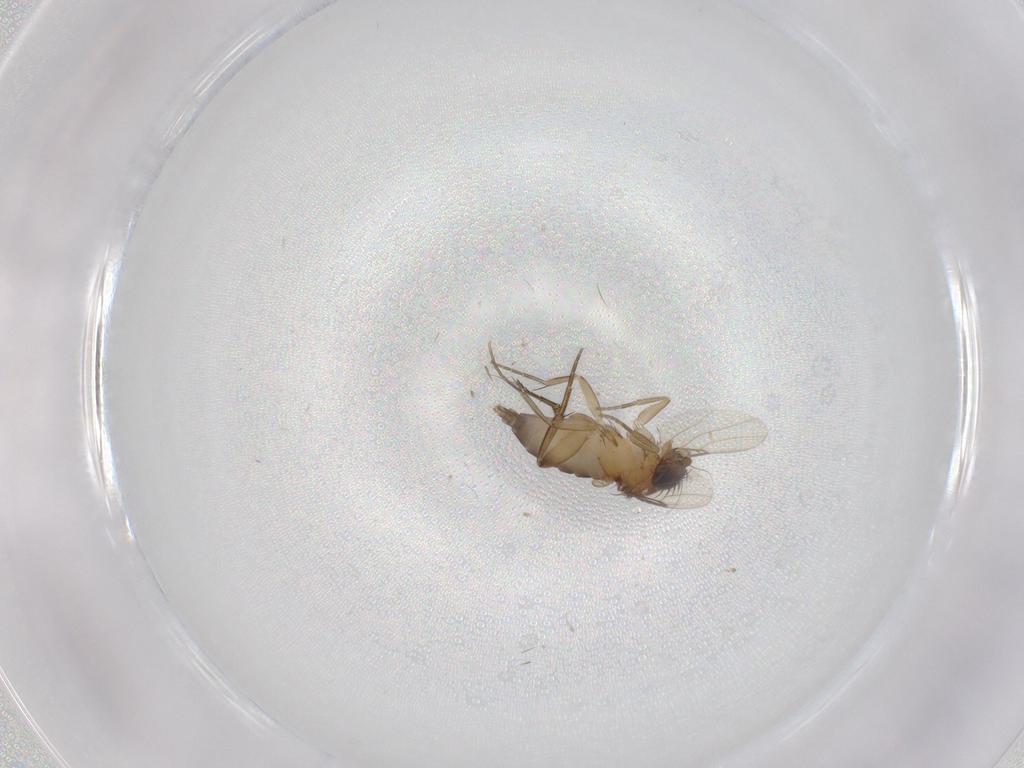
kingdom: Animalia
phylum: Arthropoda
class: Insecta
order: Diptera
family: Phoridae
